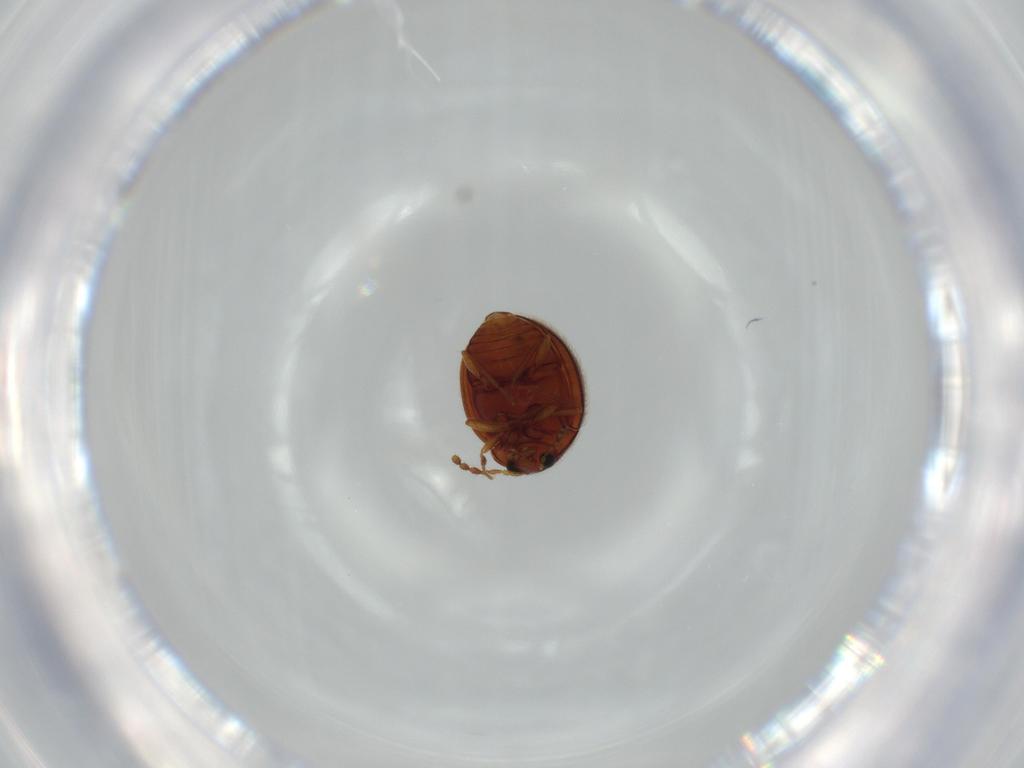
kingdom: Animalia
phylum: Arthropoda
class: Insecta
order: Coleoptera
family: Anamorphidae
